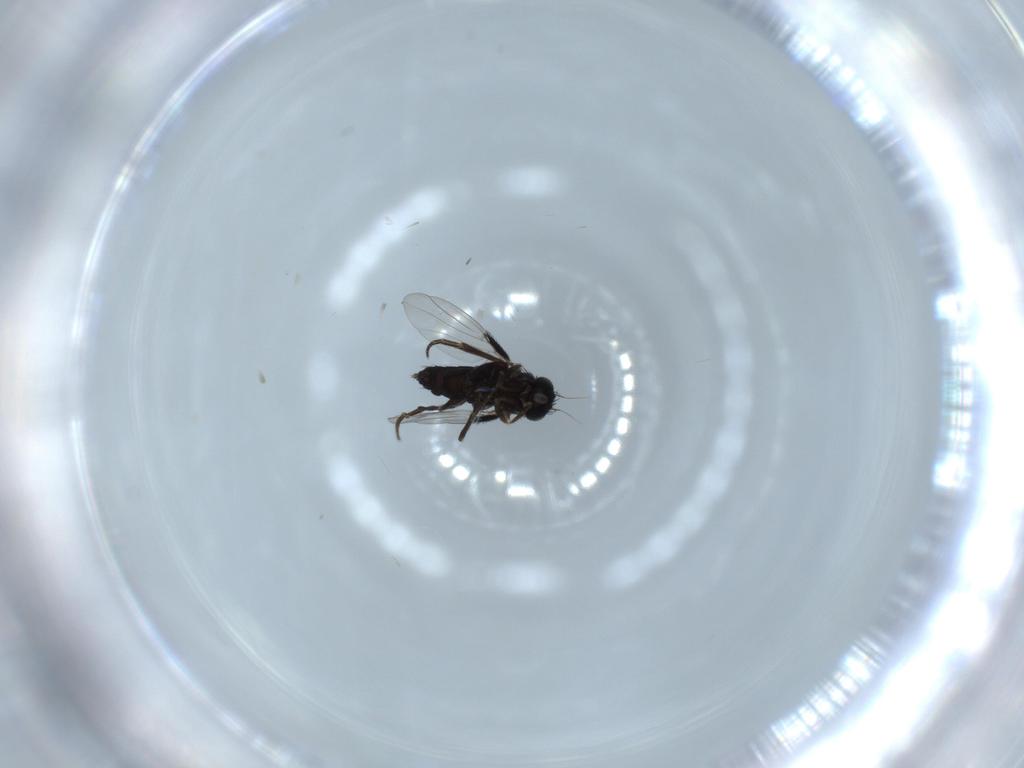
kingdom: Animalia
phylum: Arthropoda
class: Insecta
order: Diptera
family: Phoridae
